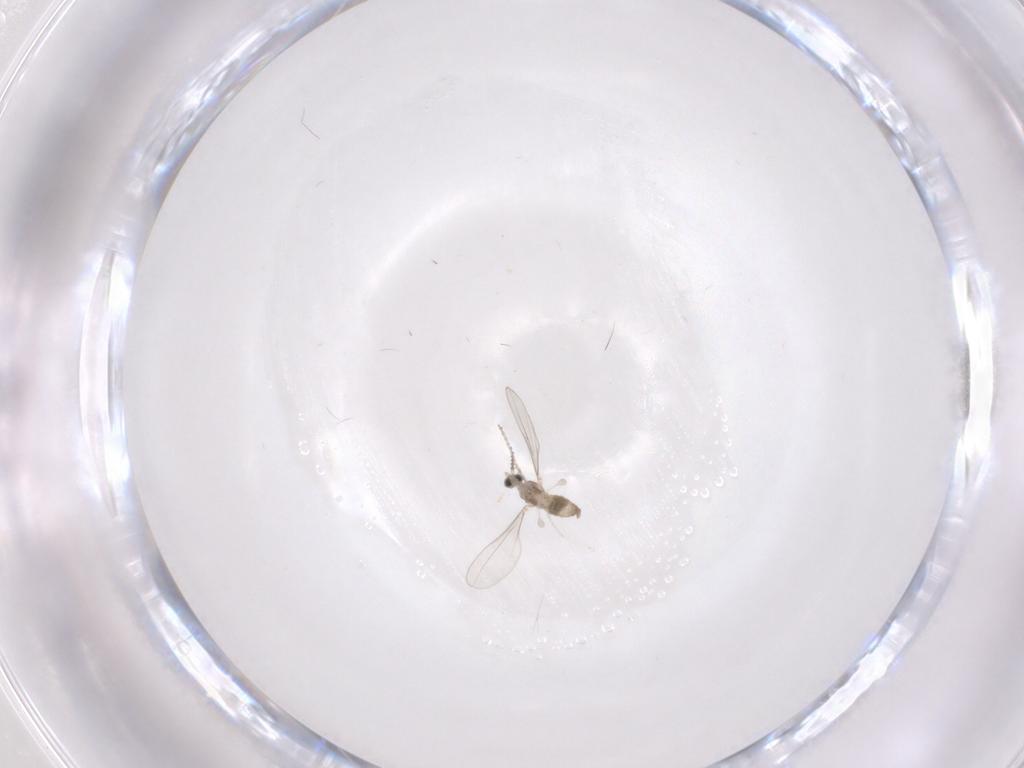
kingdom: Animalia
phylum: Arthropoda
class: Insecta
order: Diptera
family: Cecidomyiidae
